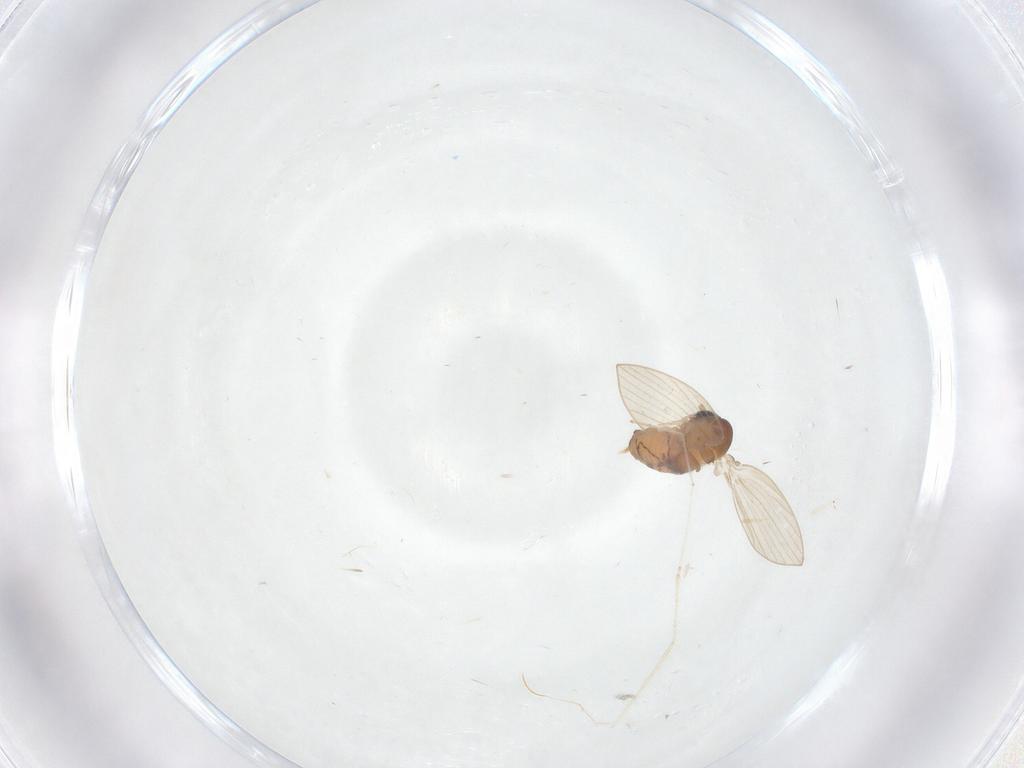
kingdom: Animalia
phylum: Arthropoda
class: Insecta
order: Diptera
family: Psychodidae
